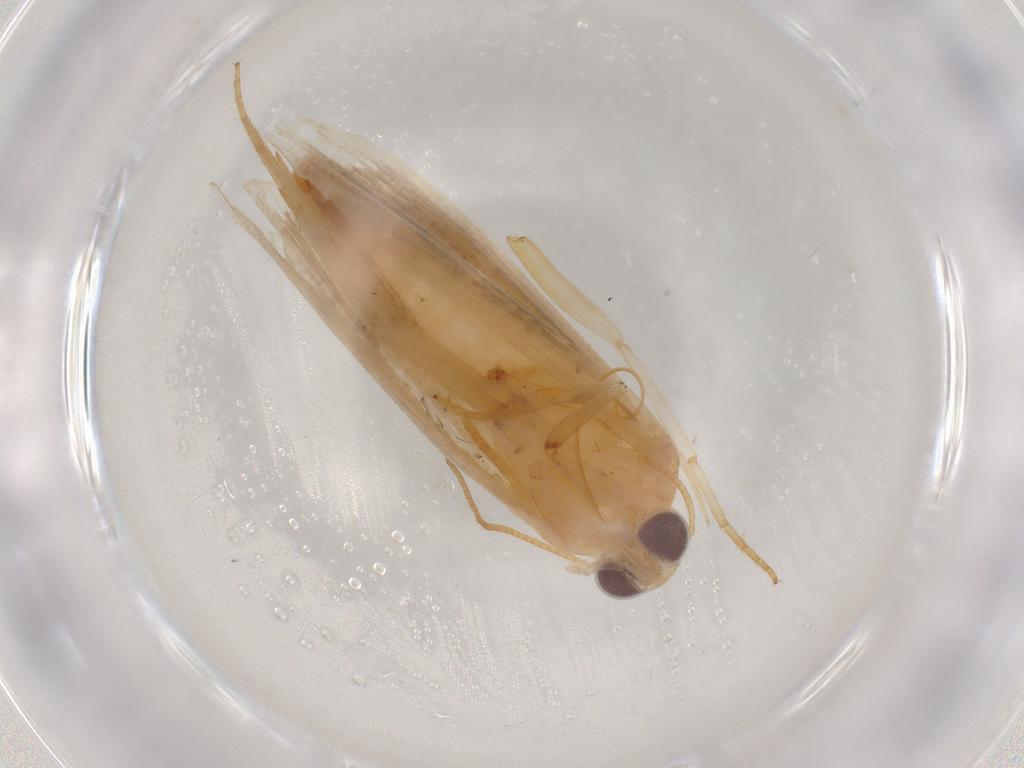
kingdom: Animalia
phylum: Arthropoda
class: Insecta
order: Lepidoptera
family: Noctuidae
